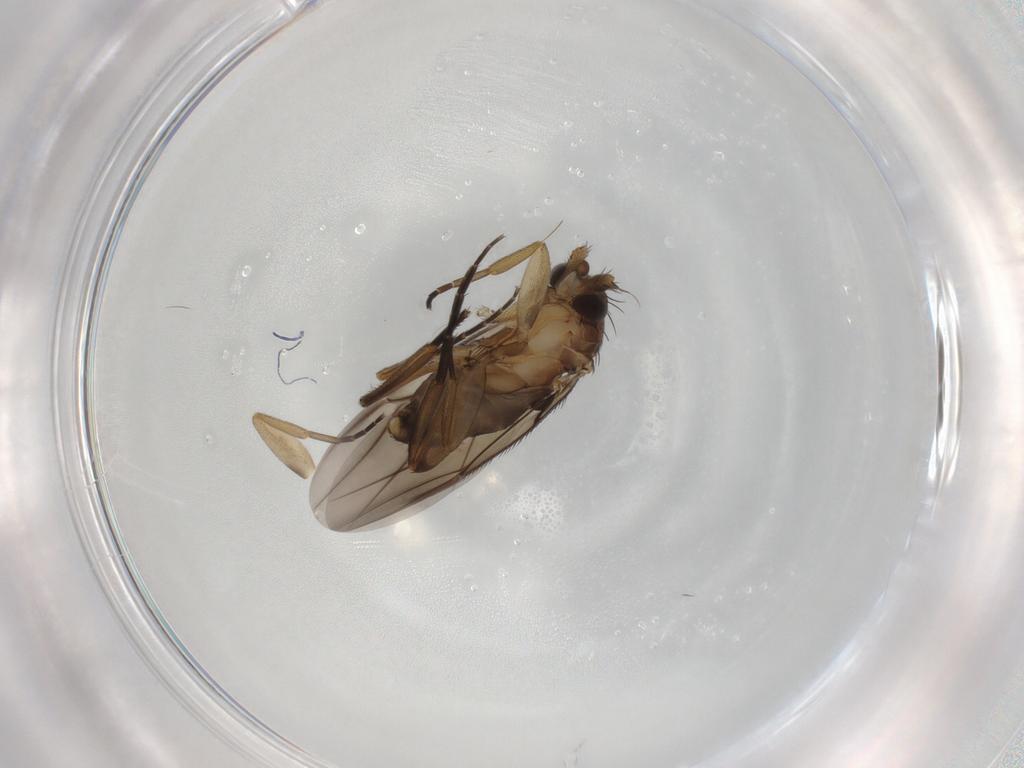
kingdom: Animalia
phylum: Arthropoda
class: Insecta
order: Diptera
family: Phoridae
